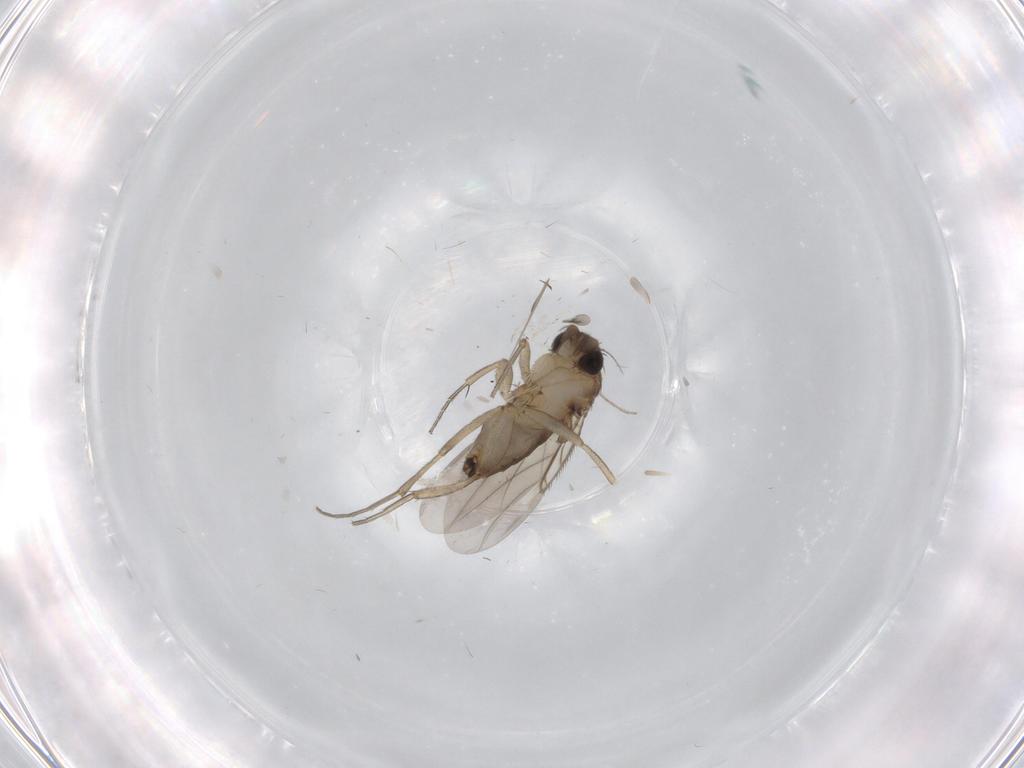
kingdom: Animalia
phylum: Arthropoda
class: Insecta
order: Diptera
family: Phoridae
